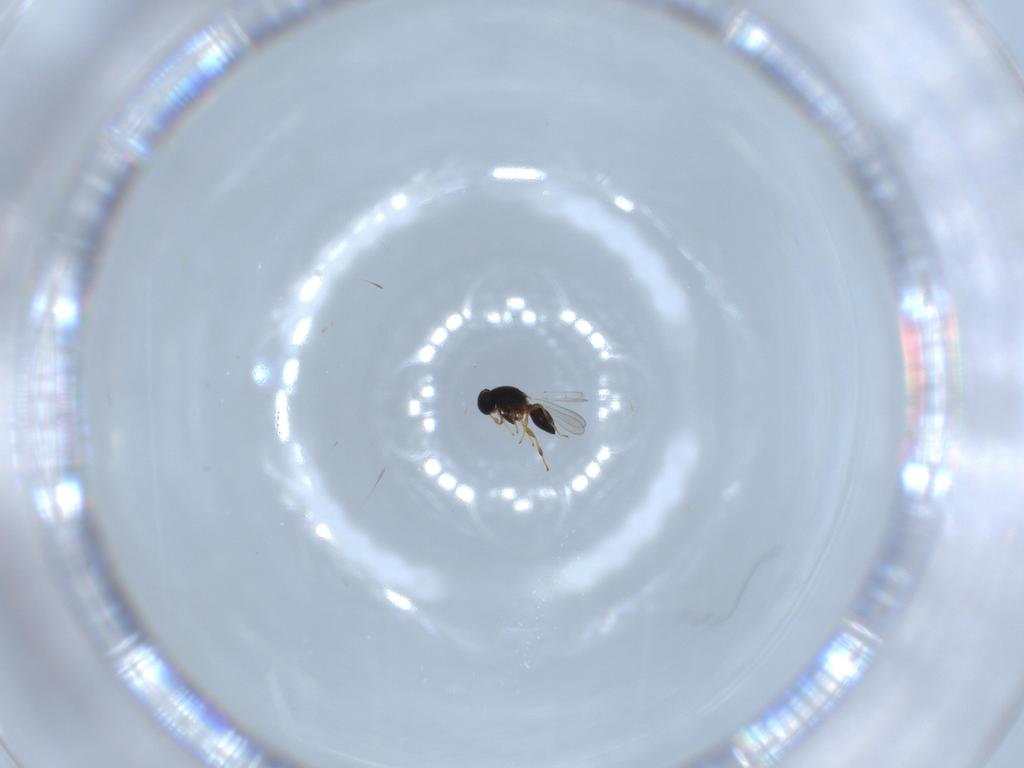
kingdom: Animalia
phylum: Arthropoda
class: Insecta
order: Hymenoptera
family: Platygastridae
